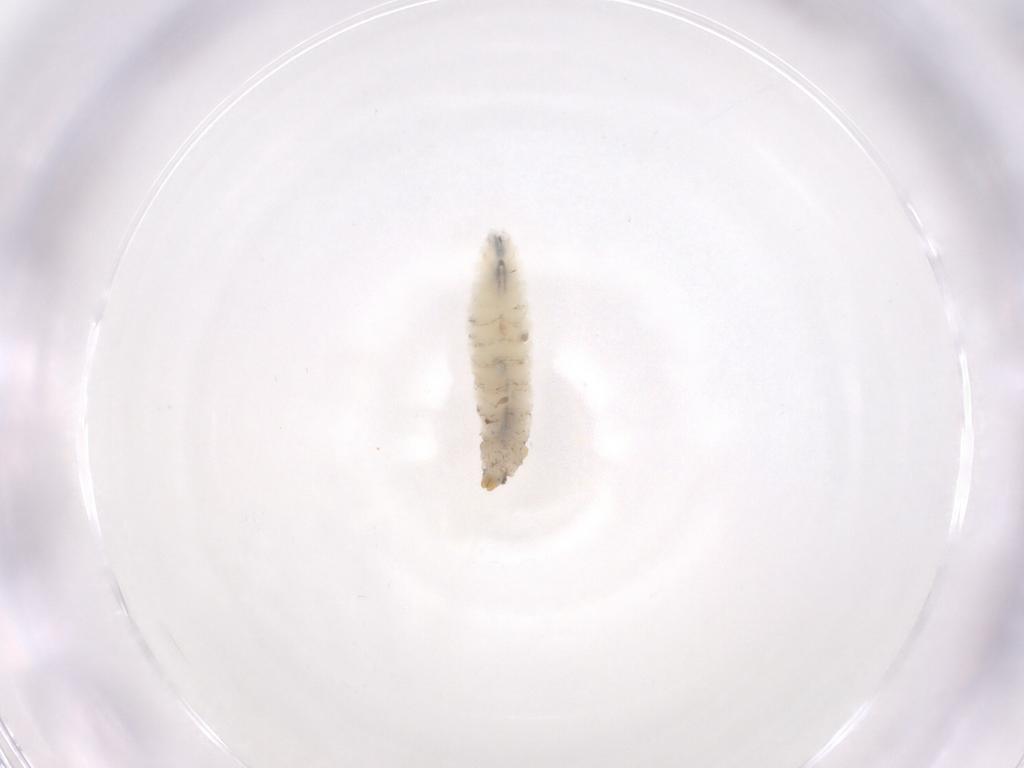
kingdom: Animalia
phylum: Arthropoda
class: Insecta
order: Diptera
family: Cecidomyiidae
